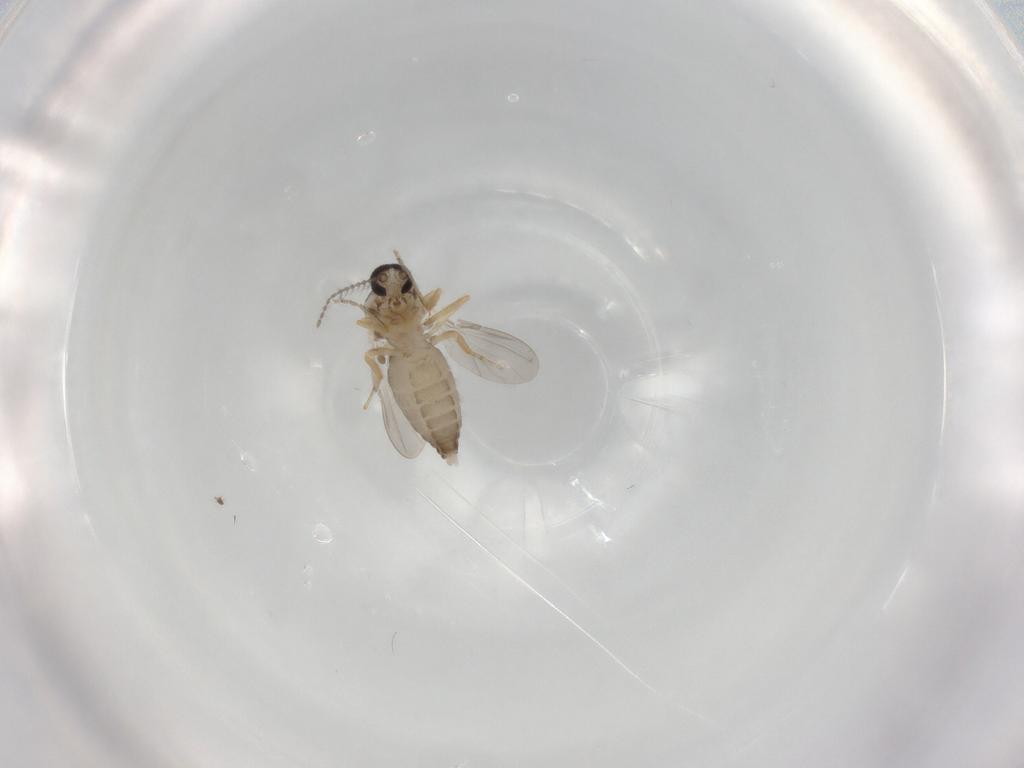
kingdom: Animalia
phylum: Arthropoda
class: Insecta
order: Diptera
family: Ceratopogonidae
